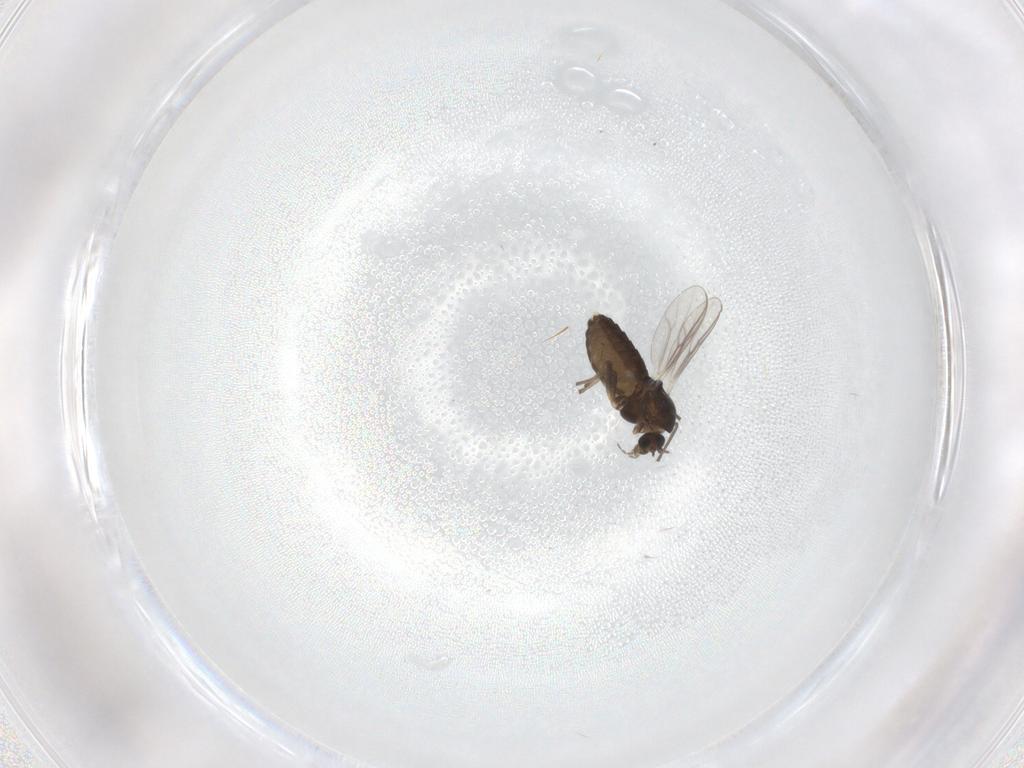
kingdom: Animalia
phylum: Arthropoda
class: Insecta
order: Diptera
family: Chironomidae
